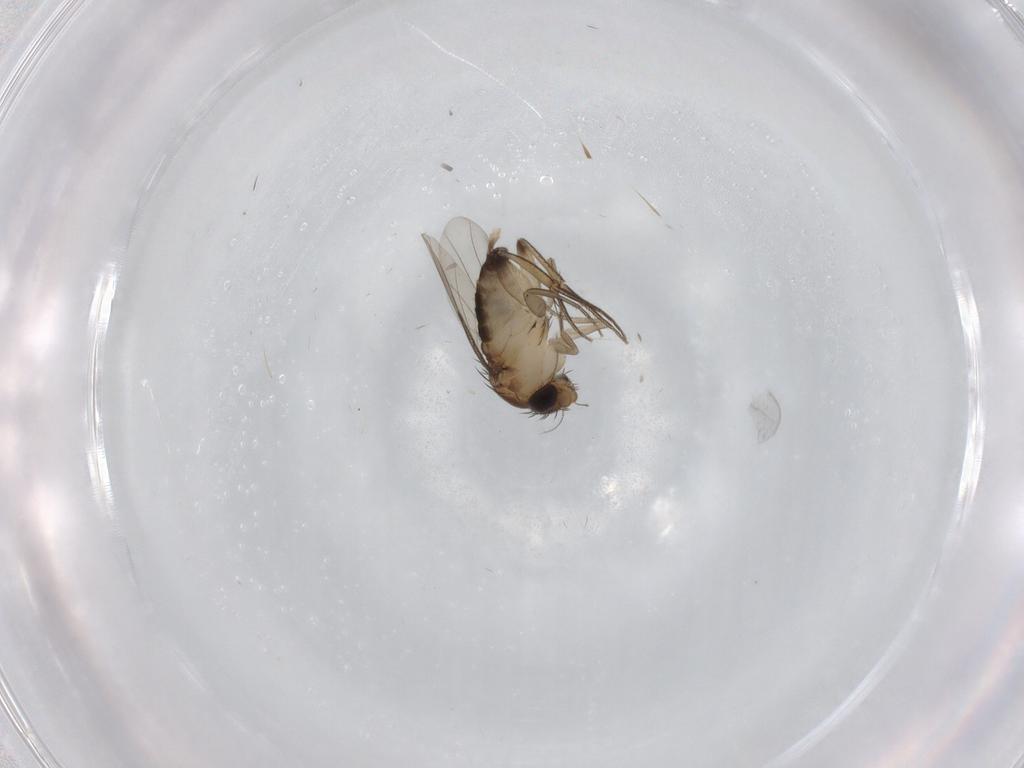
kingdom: Animalia
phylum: Arthropoda
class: Insecta
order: Diptera
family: Phoridae
